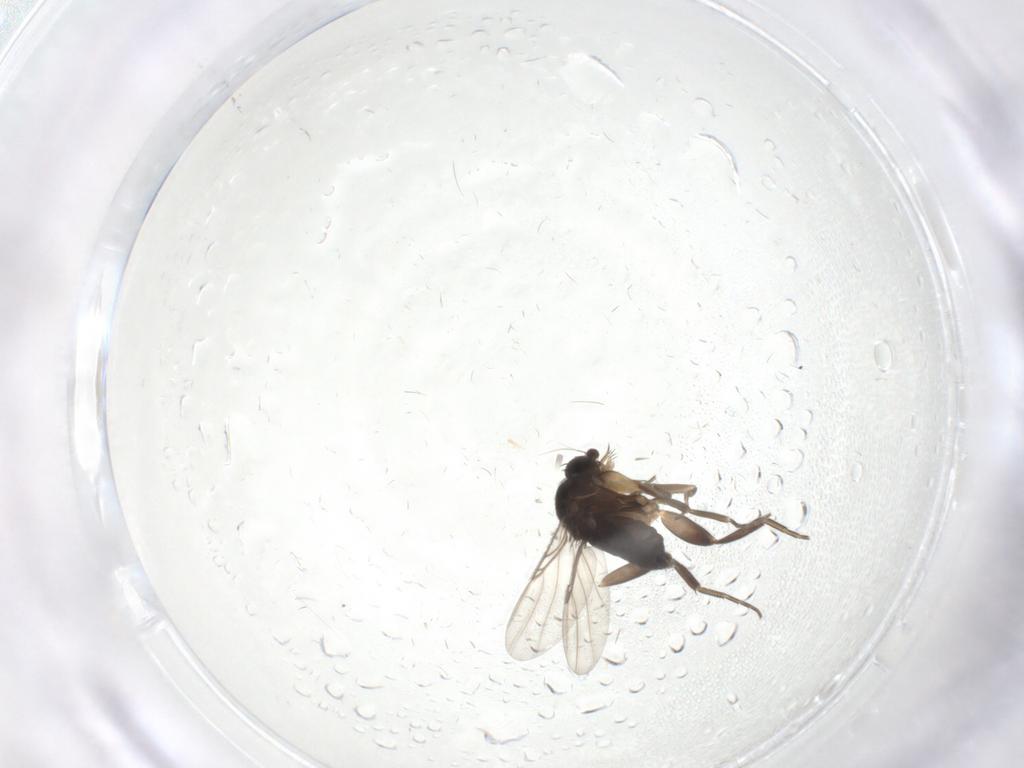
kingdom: Animalia
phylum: Arthropoda
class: Insecta
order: Diptera
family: Phoridae
